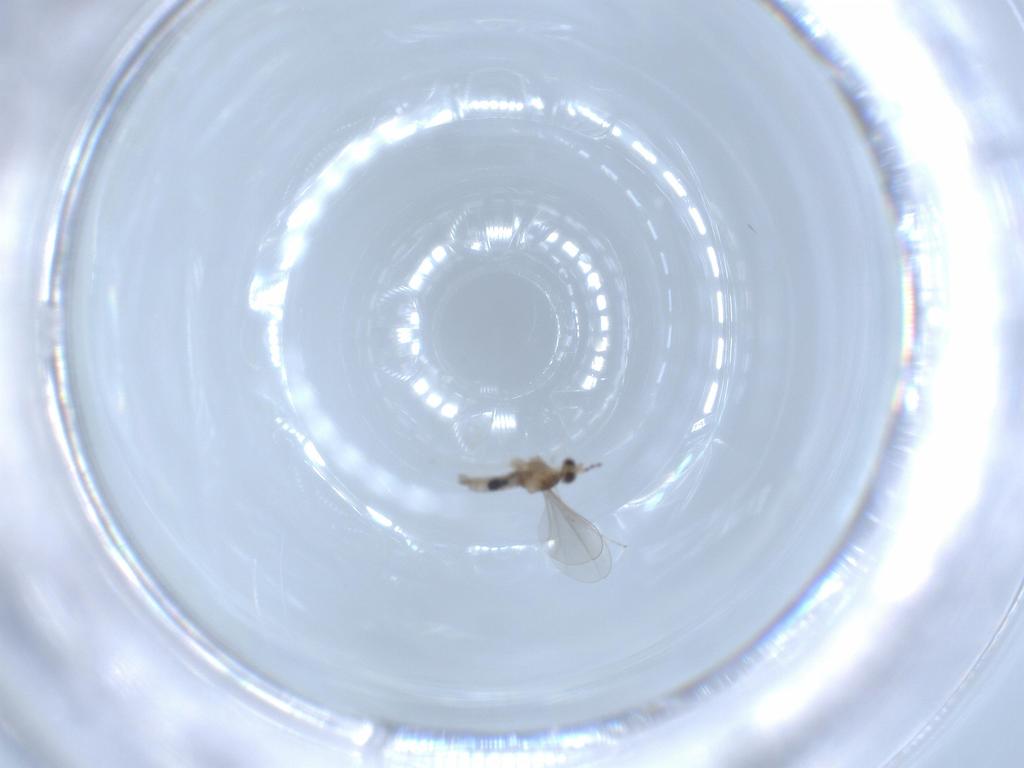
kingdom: Animalia
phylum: Arthropoda
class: Insecta
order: Diptera
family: Cecidomyiidae
